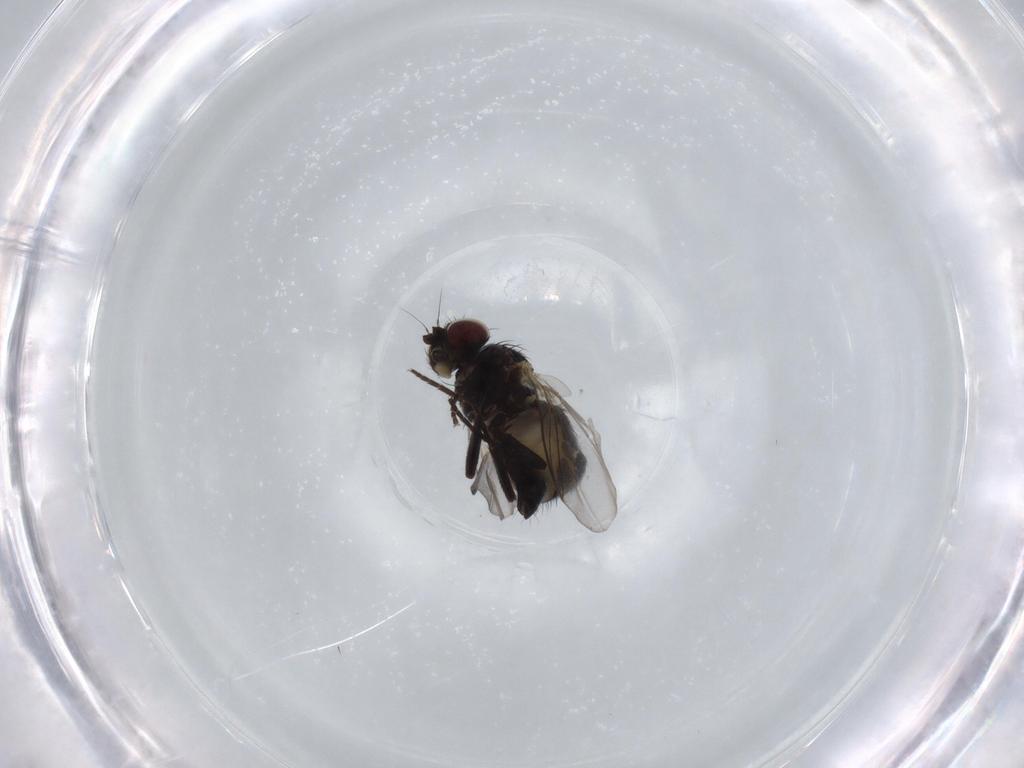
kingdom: Animalia
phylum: Arthropoda
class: Insecta
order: Diptera
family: Phoridae
